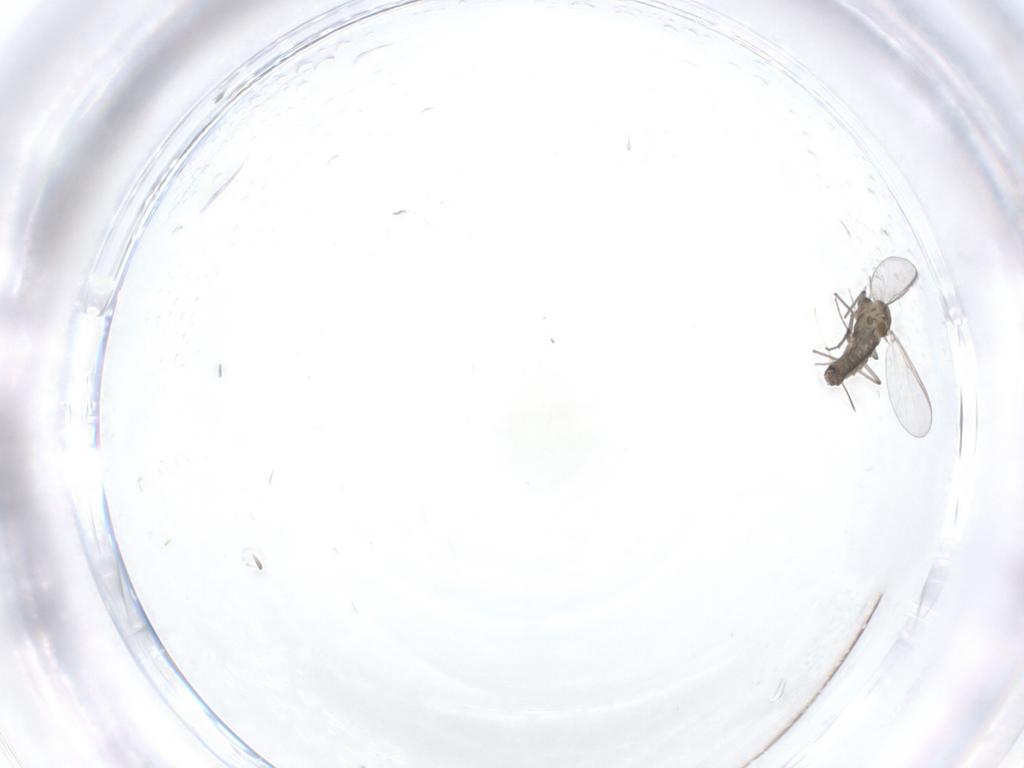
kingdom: Animalia
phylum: Arthropoda
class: Insecta
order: Diptera
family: Chironomidae
